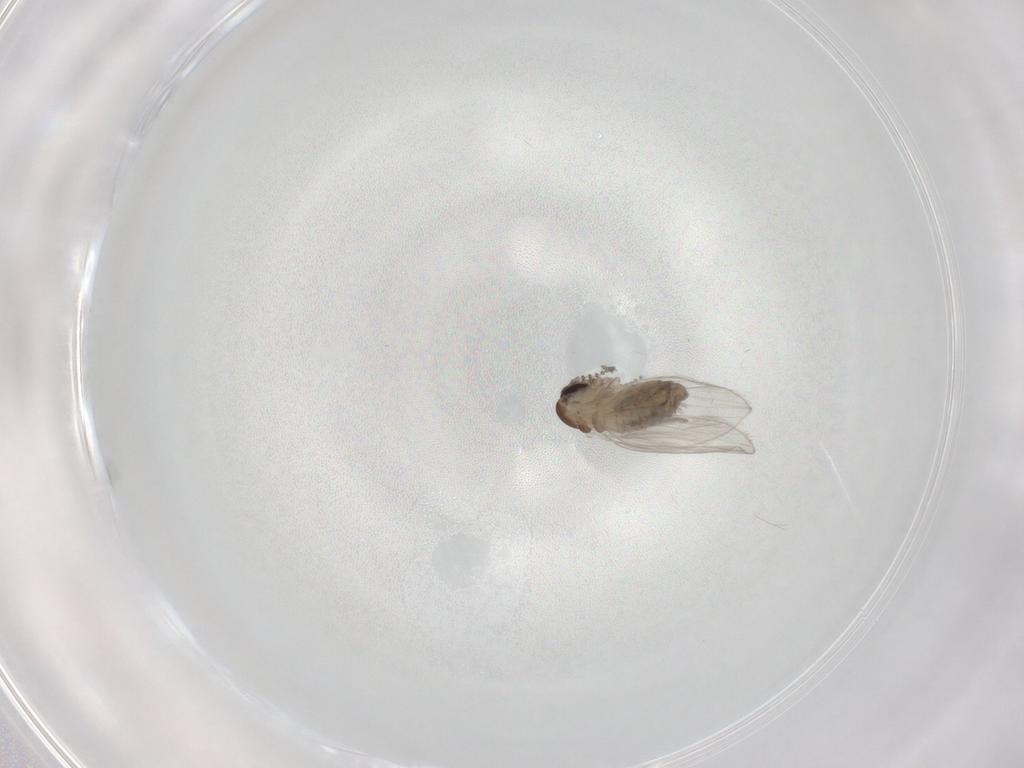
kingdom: Animalia
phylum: Arthropoda
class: Insecta
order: Diptera
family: Psychodidae
